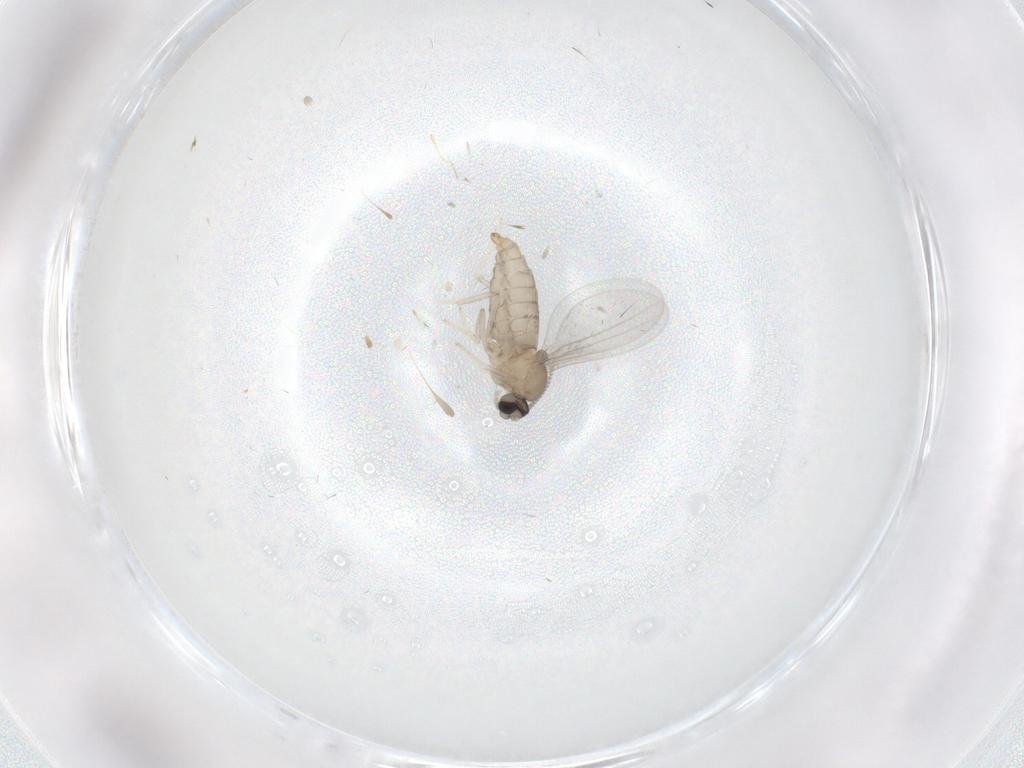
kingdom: Animalia
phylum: Arthropoda
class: Insecta
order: Diptera
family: Cecidomyiidae
